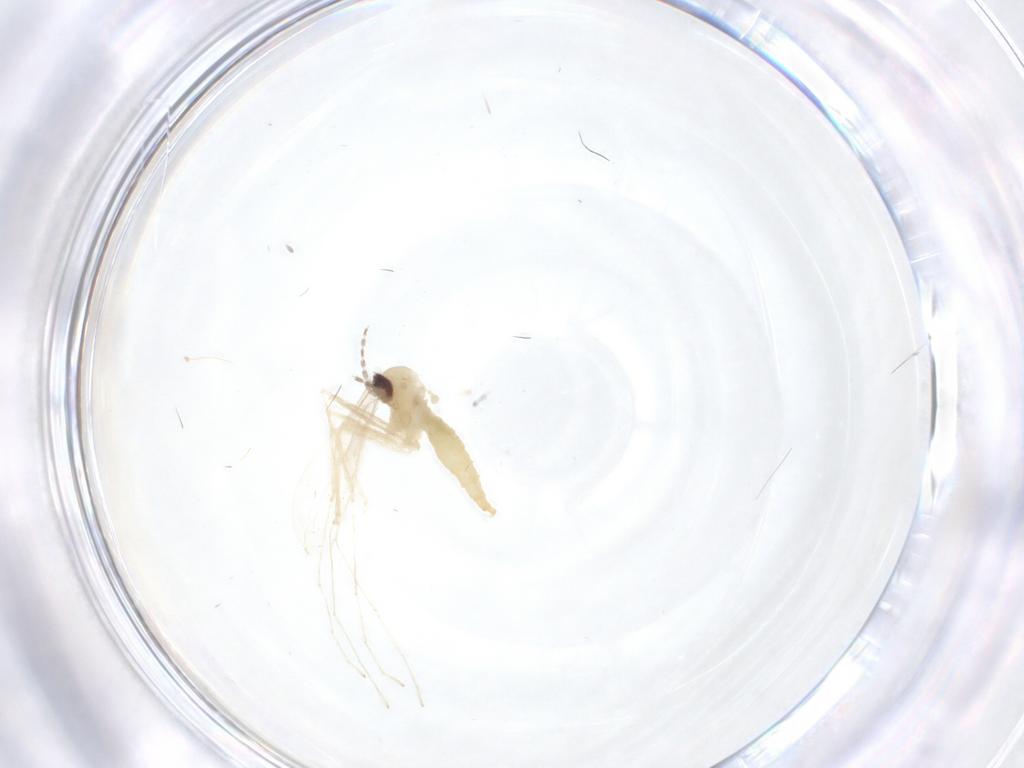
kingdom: Animalia
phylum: Arthropoda
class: Insecta
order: Diptera
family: Cecidomyiidae
